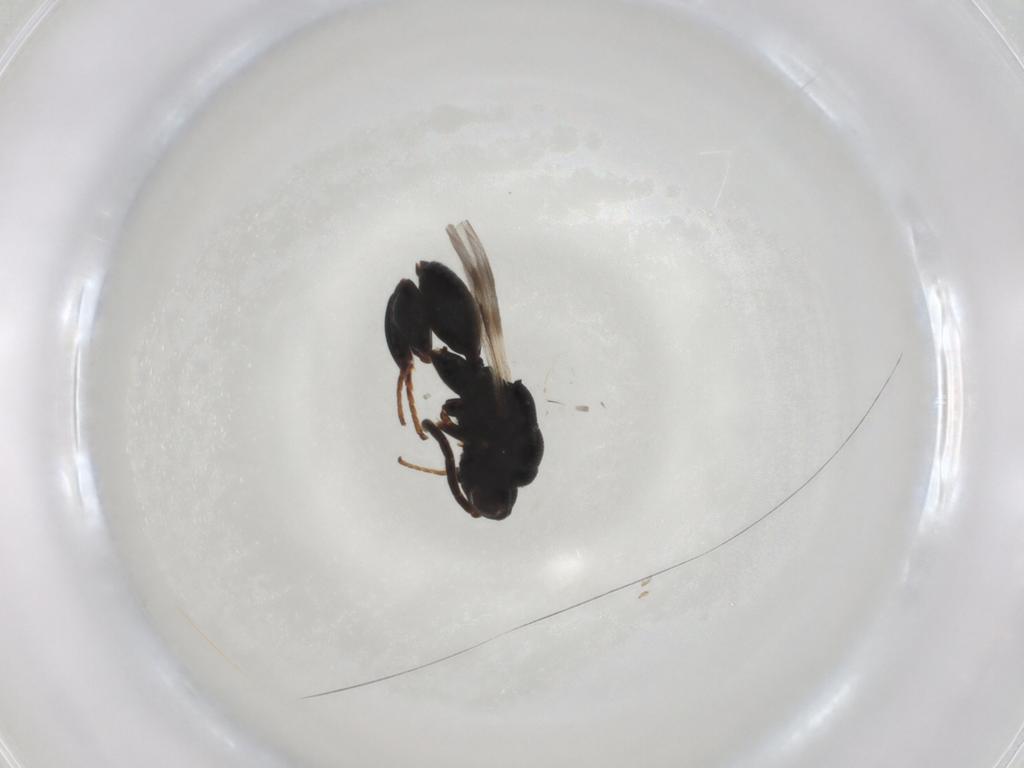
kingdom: Animalia
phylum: Arthropoda
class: Insecta
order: Hymenoptera
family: Chalcididae
